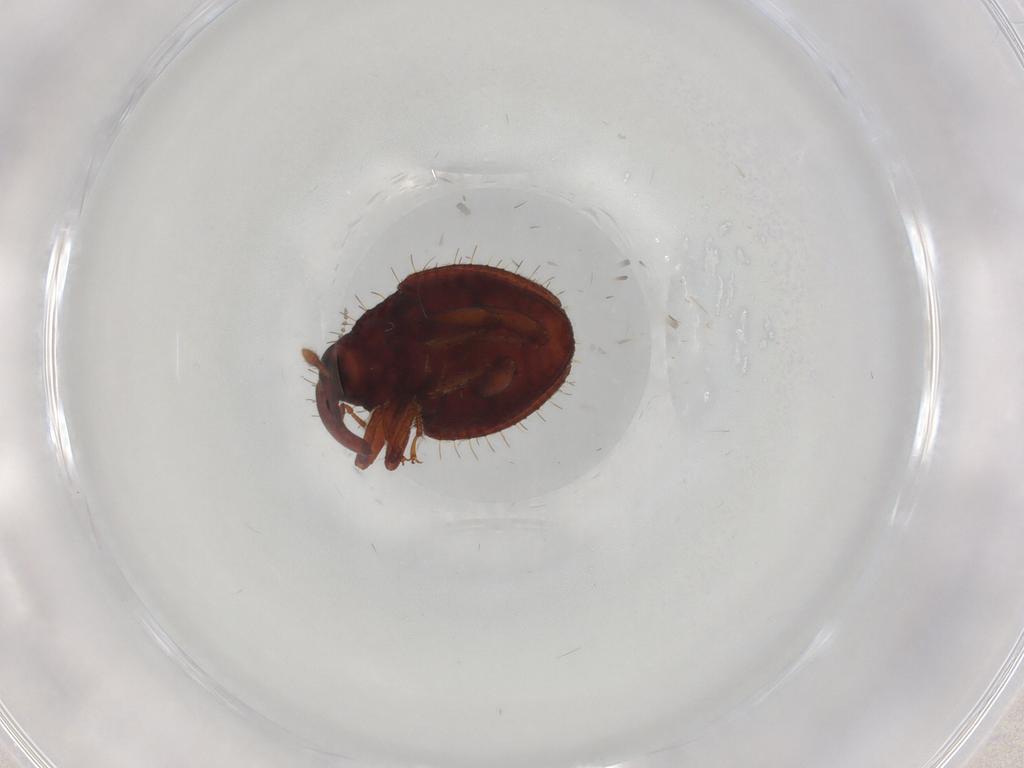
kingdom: Animalia
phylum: Arthropoda
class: Insecta
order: Coleoptera
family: Curculionidae
